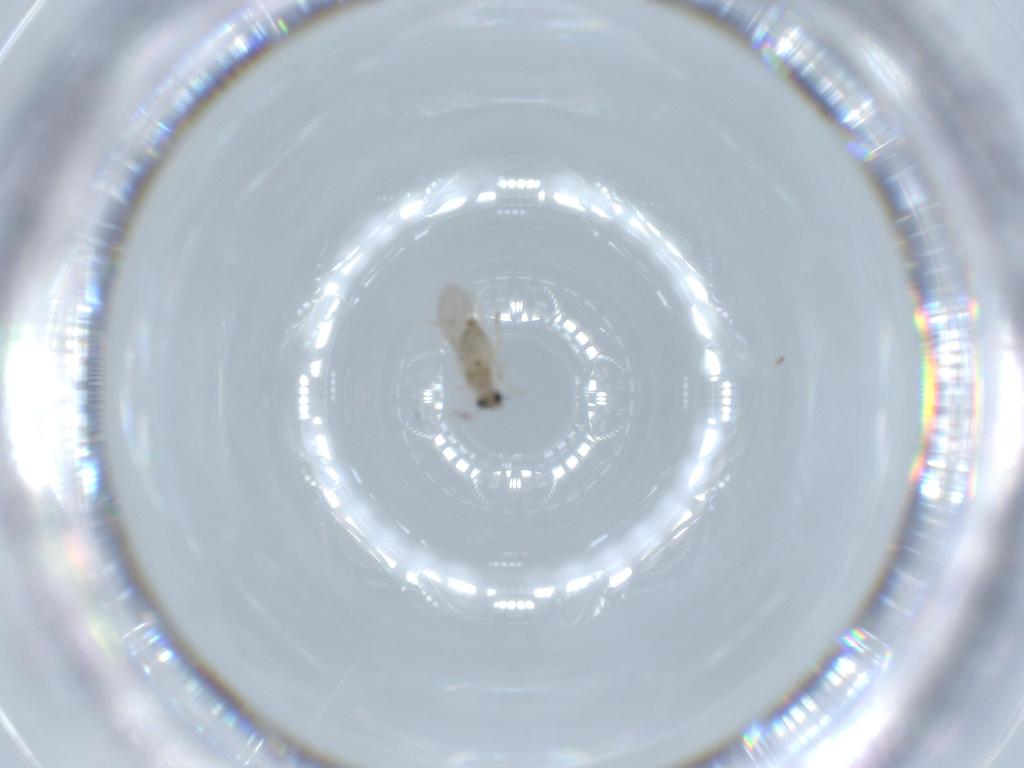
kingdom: Animalia
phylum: Arthropoda
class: Insecta
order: Diptera
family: Cecidomyiidae
